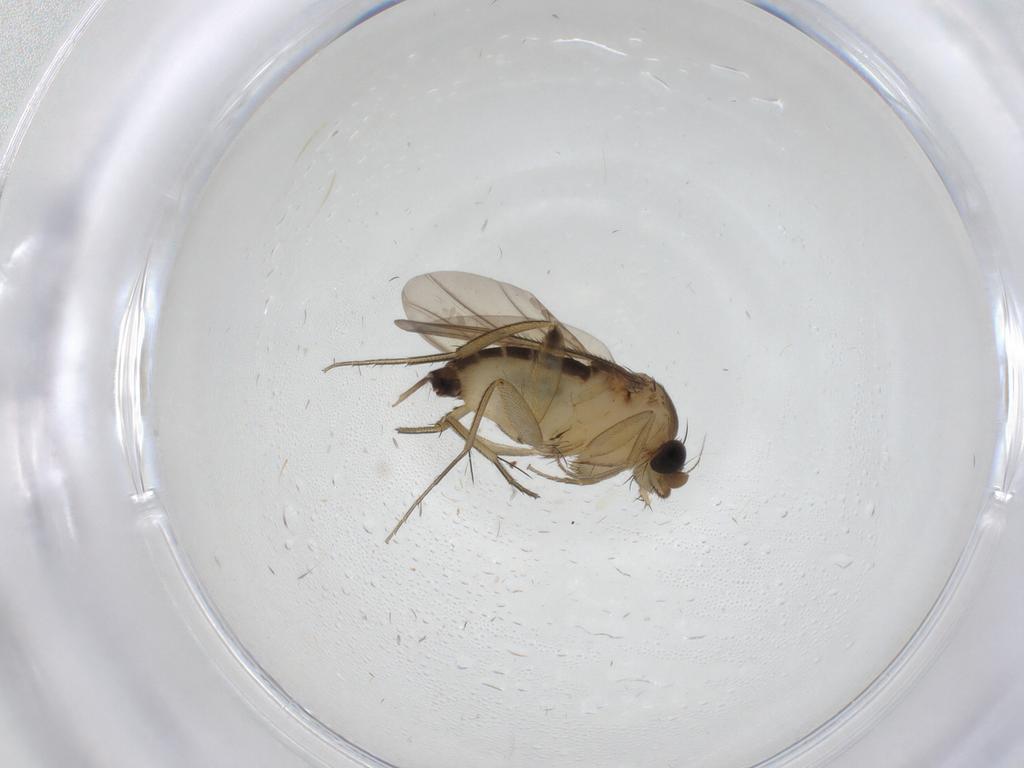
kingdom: Animalia
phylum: Arthropoda
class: Insecta
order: Diptera
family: Phoridae
